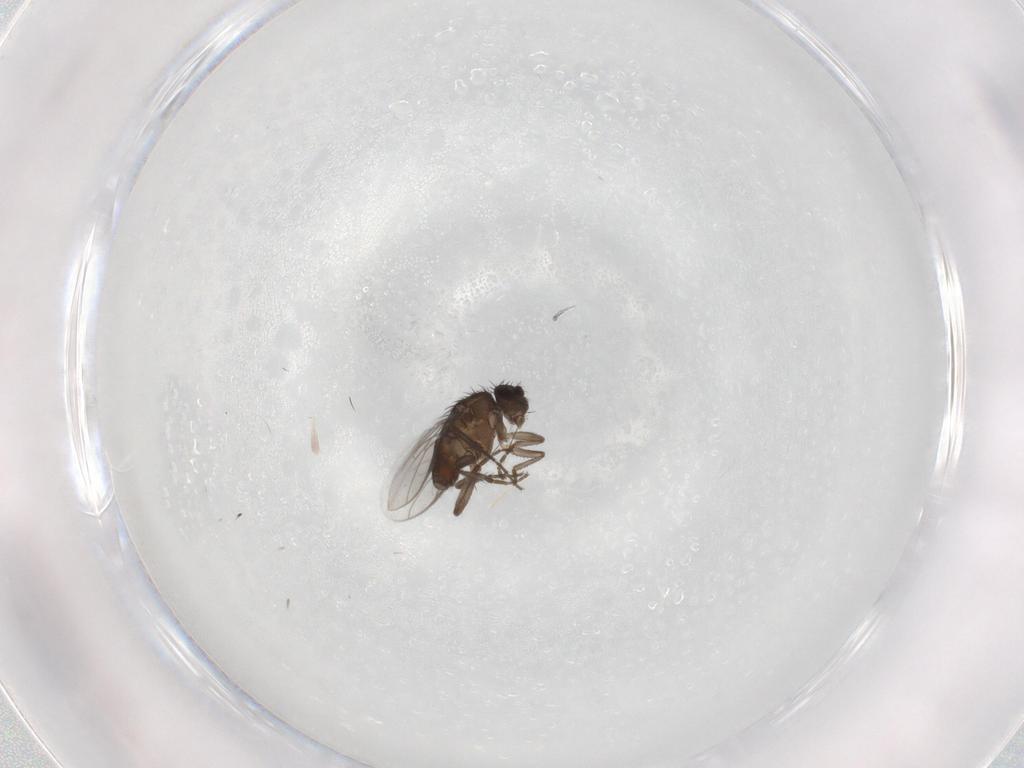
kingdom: Animalia
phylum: Arthropoda
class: Insecta
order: Diptera
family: Sphaeroceridae
